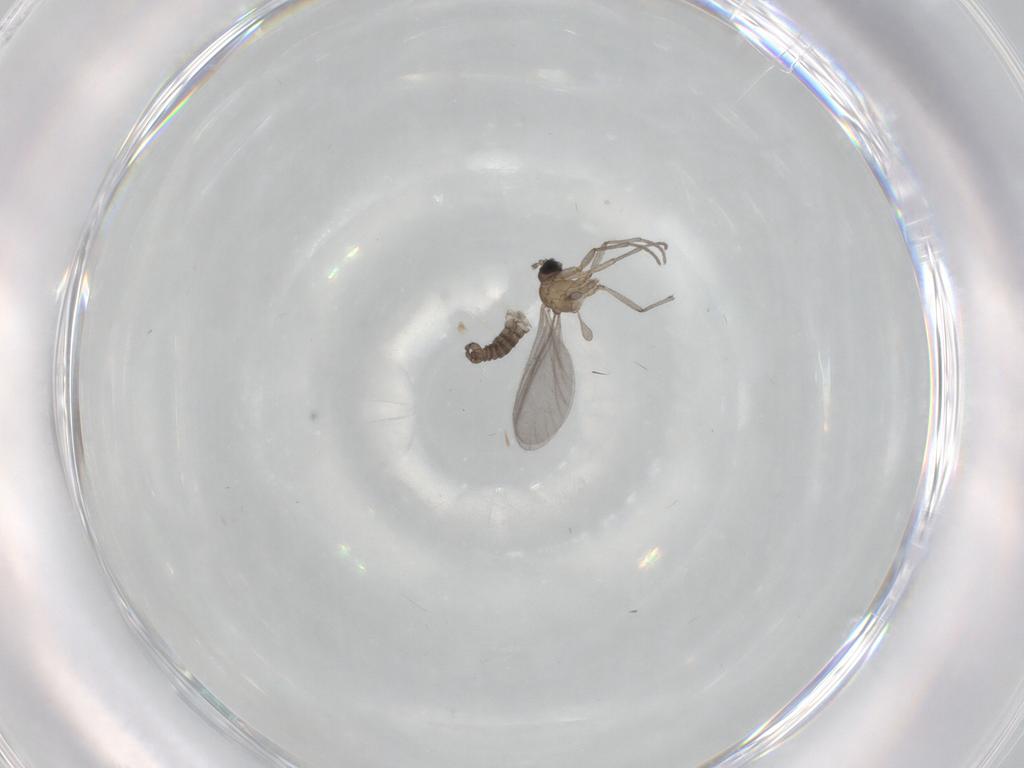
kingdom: Animalia
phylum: Arthropoda
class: Insecta
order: Diptera
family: Sciaridae
